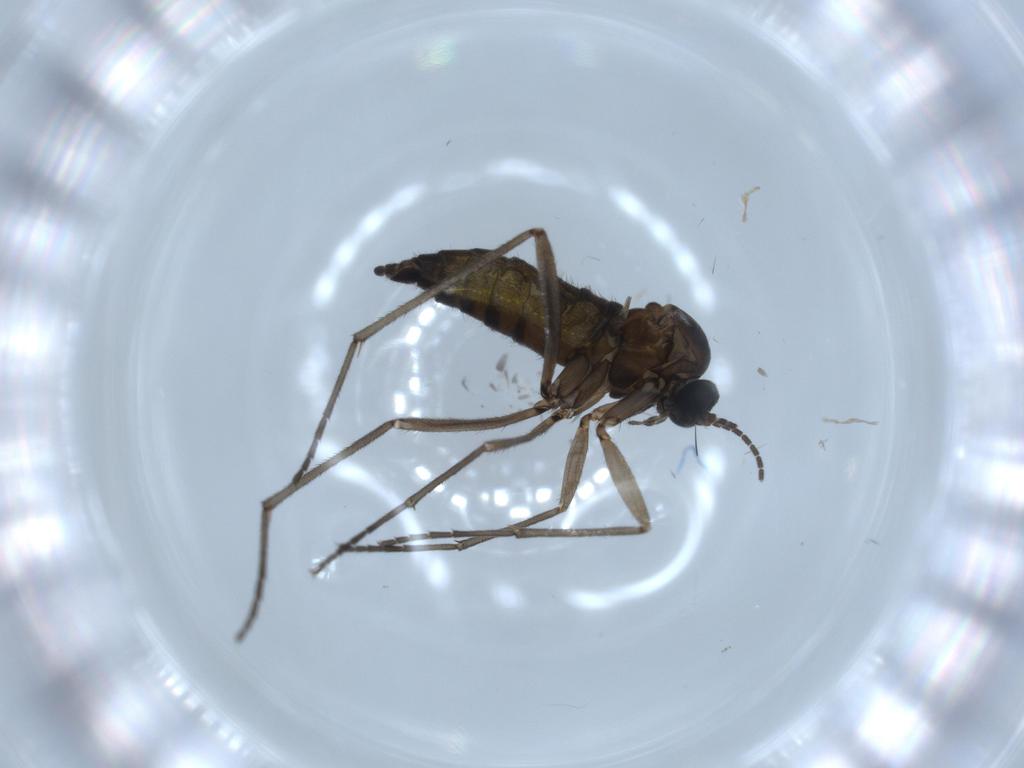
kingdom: Animalia
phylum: Arthropoda
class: Insecta
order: Diptera
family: Sciaridae
